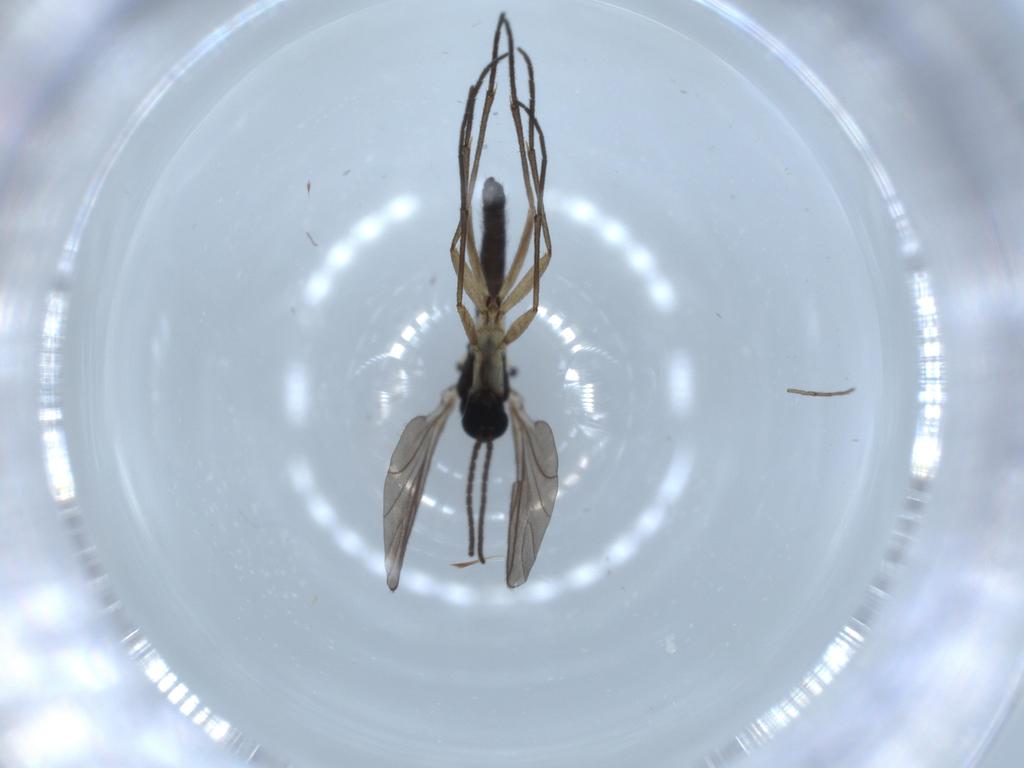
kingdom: Animalia
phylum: Arthropoda
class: Insecta
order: Diptera
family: Sciaridae
